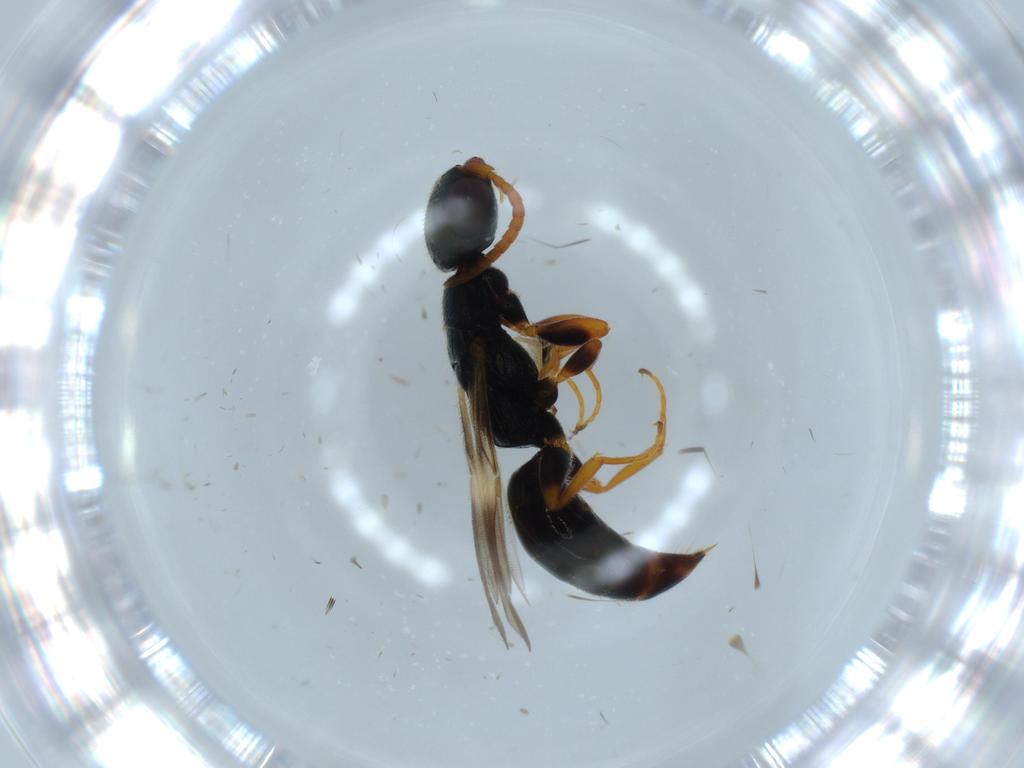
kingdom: Animalia
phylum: Arthropoda
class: Insecta
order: Hymenoptera
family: Bethylidae
